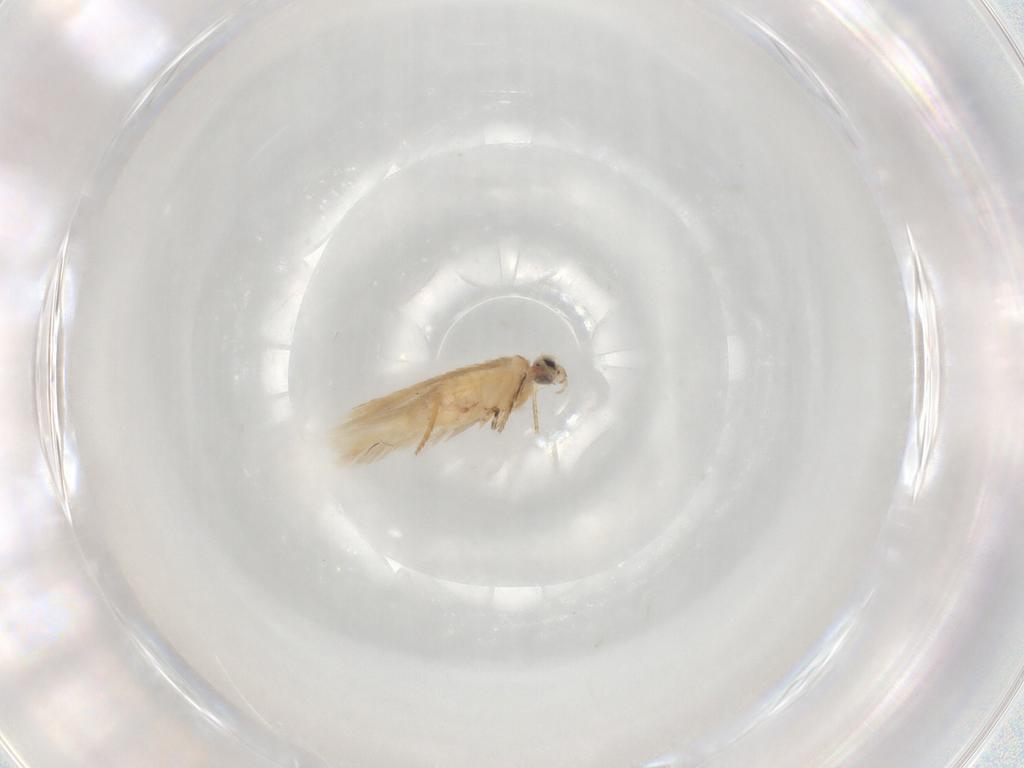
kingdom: Animalia
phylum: Arthropoda
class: Insecta
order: Lepidoptera
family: Nepticulidae
